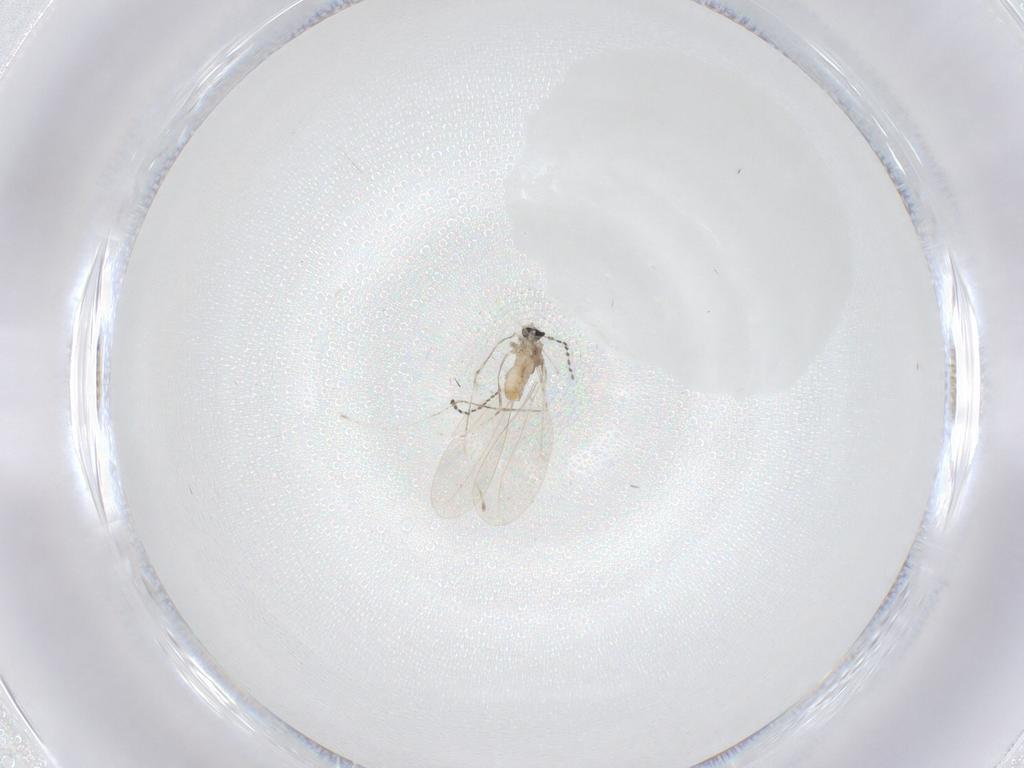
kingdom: Animalia
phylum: Arthropoda
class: Insecta
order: Diptera
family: Cecidomyiidae
